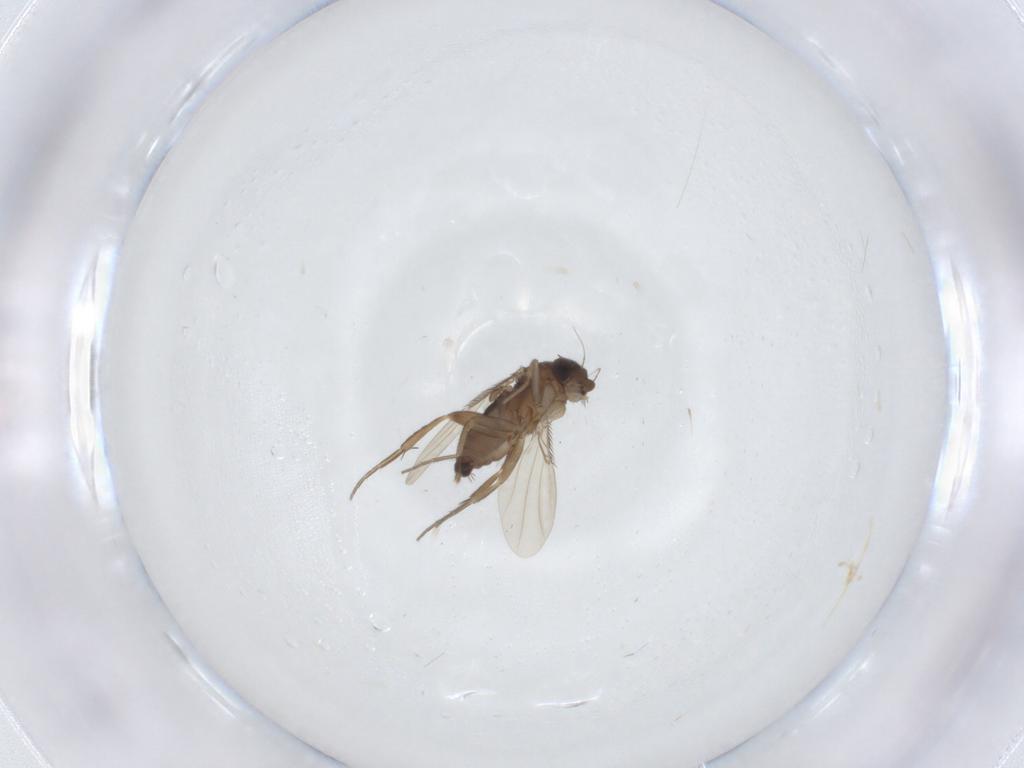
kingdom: Animalia
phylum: Arthropoda
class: Insecta
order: Diptera
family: Phoridae
